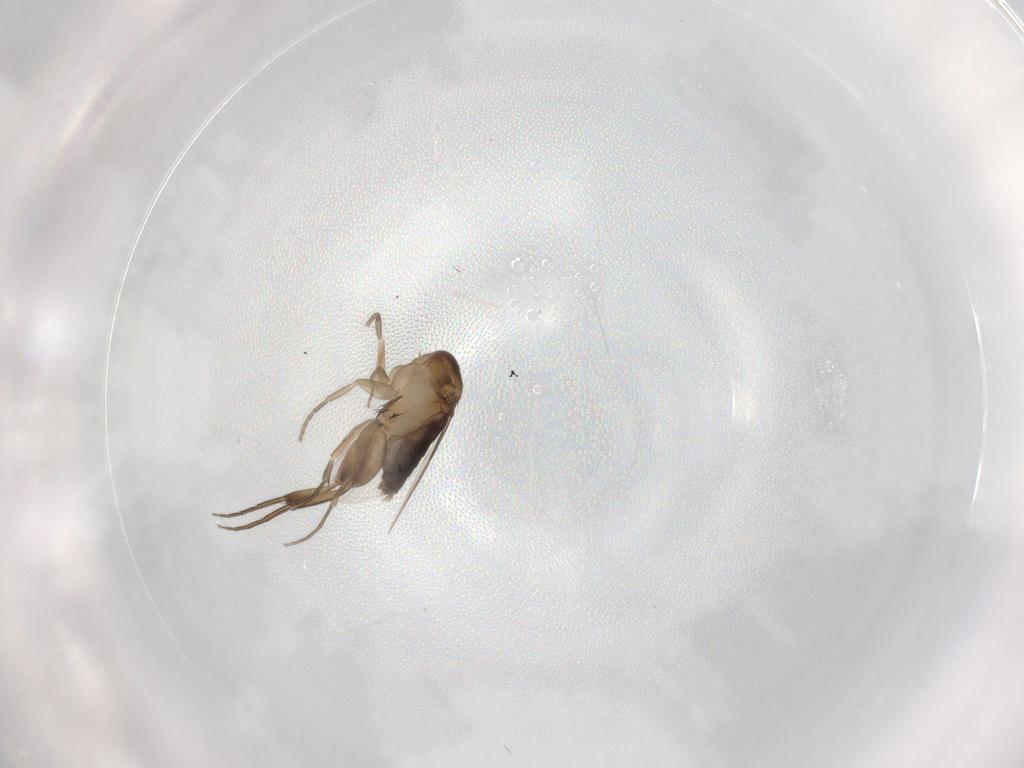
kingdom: Animalia
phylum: Arthropoda
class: Insecta
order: Diptera
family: Phoridae
